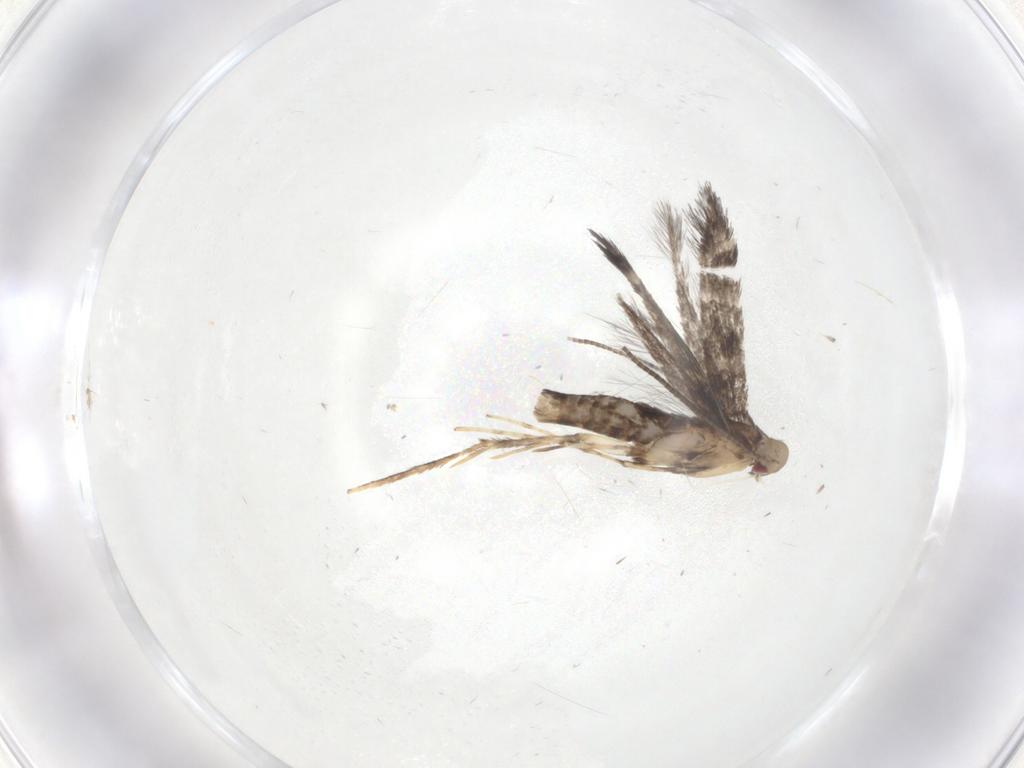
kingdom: Animalia
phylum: Arthropoda
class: Insecta
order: Lepidoptera
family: Gracillariidae
